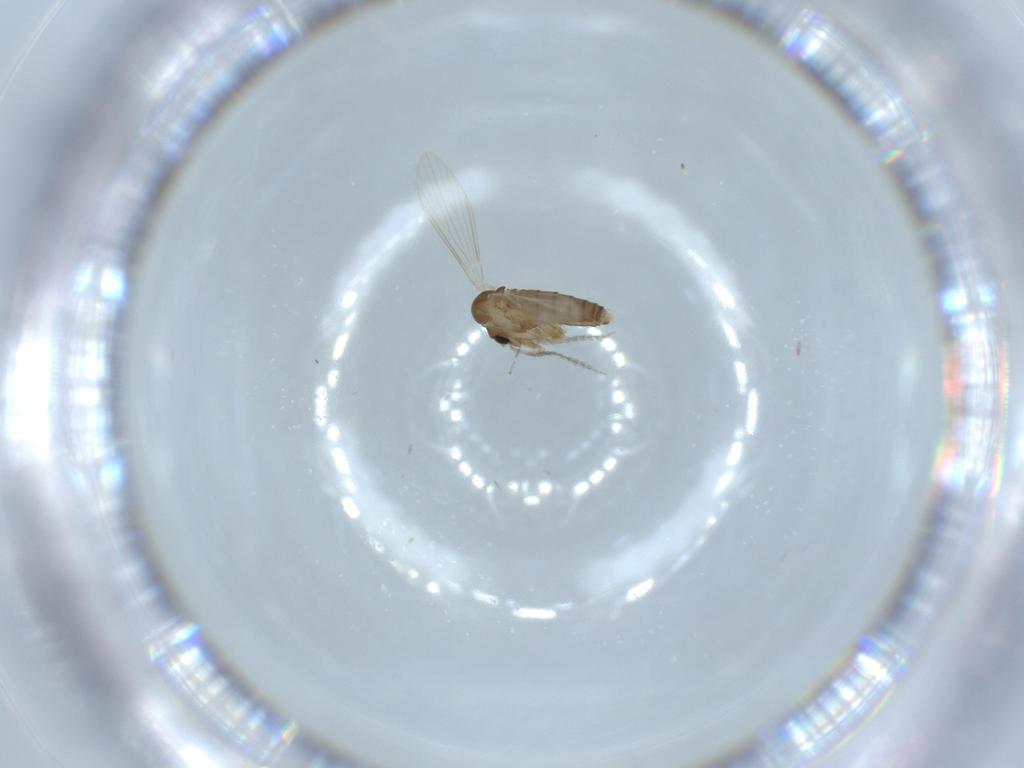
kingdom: Animalia
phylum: Arthropoda
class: Insecta
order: Diptera
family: Psychodidae
